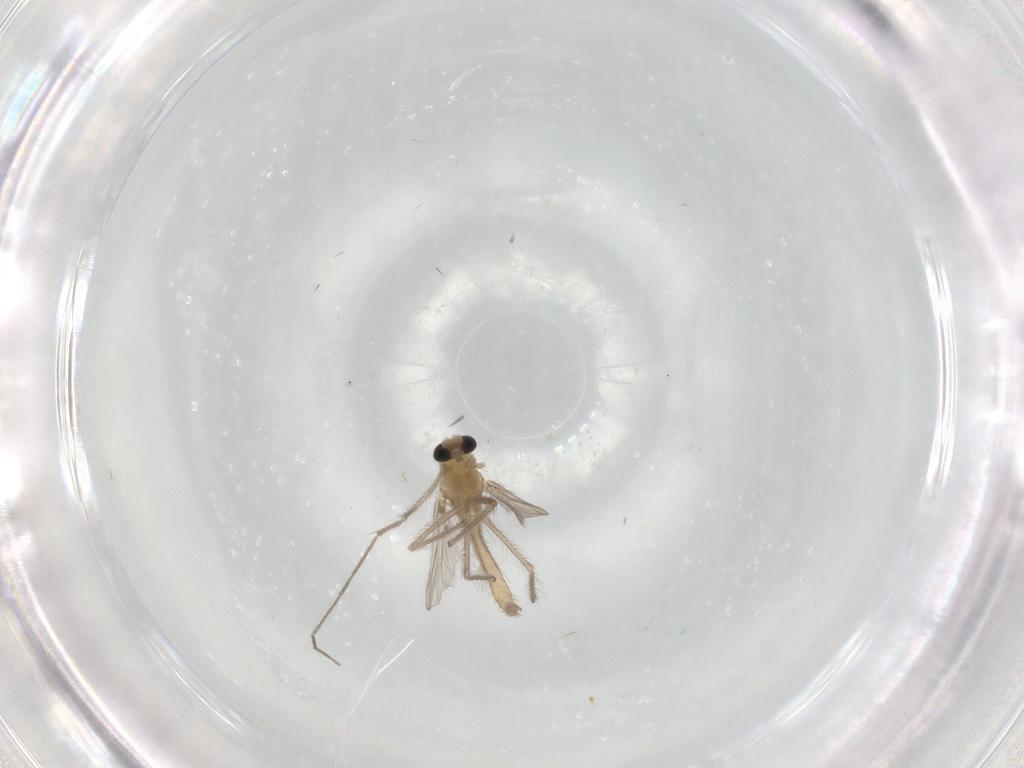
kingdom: Animalia
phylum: Arthropoda
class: Insecta
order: Diptera
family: Chironomidae
